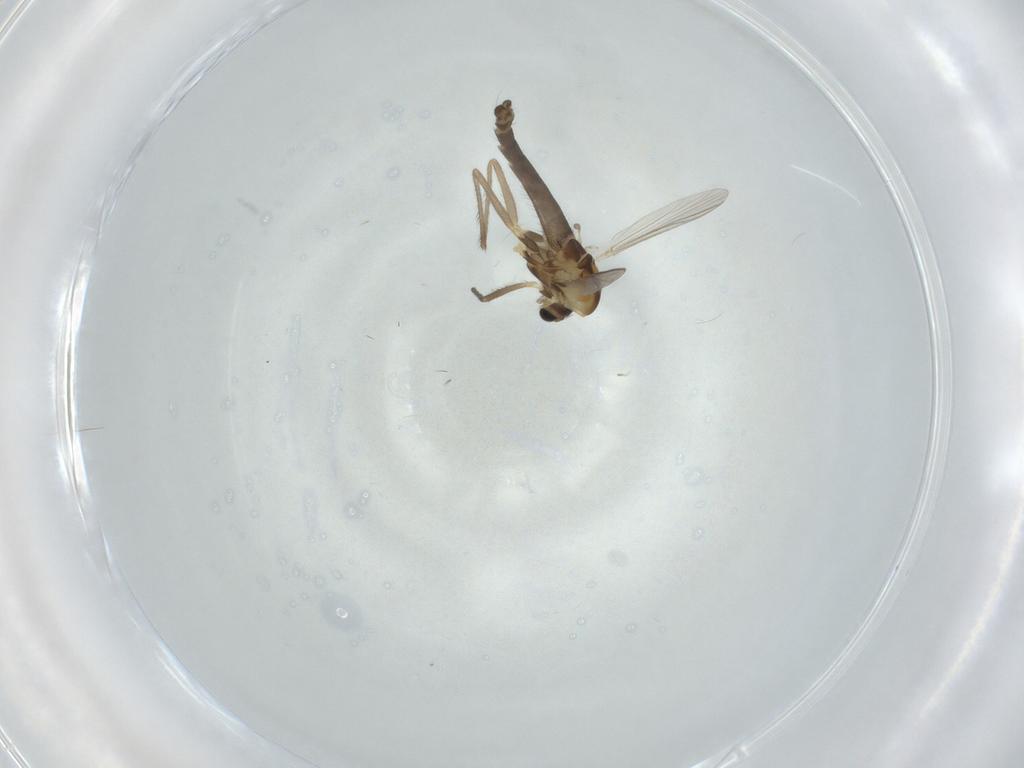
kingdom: Animalia
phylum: Arthropoda
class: Insecta
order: Diptera
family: Chironomidae
